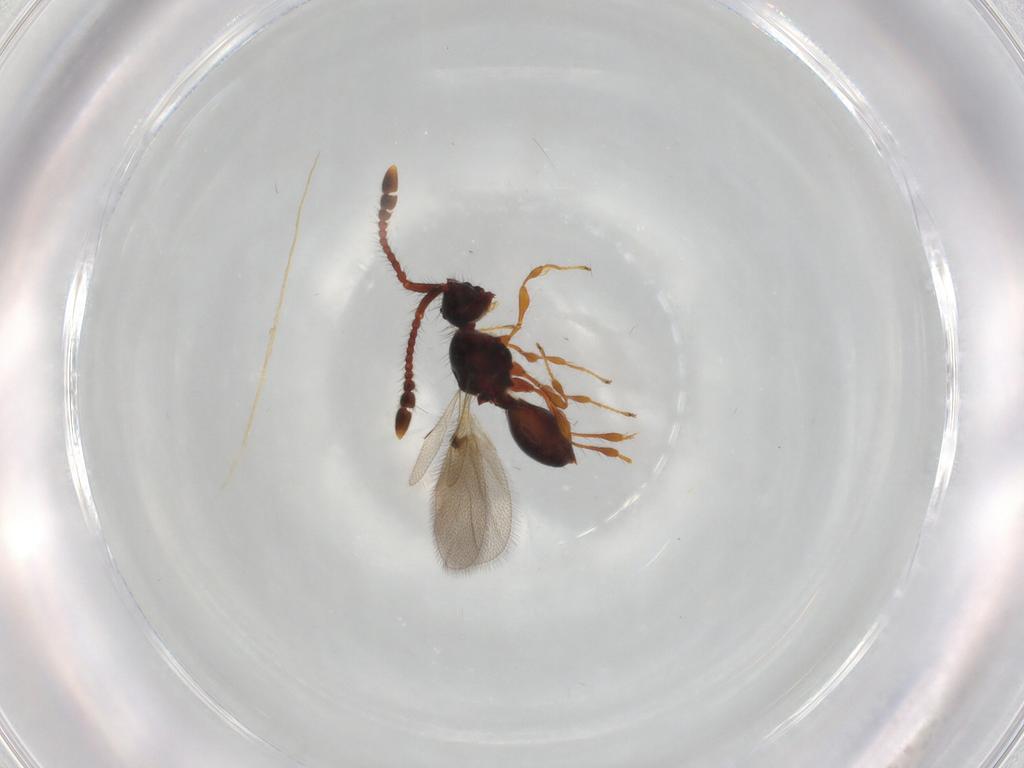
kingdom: Animalia
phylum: Arthropoda
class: Insecta
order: Hymenoptera
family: Diapriidae
